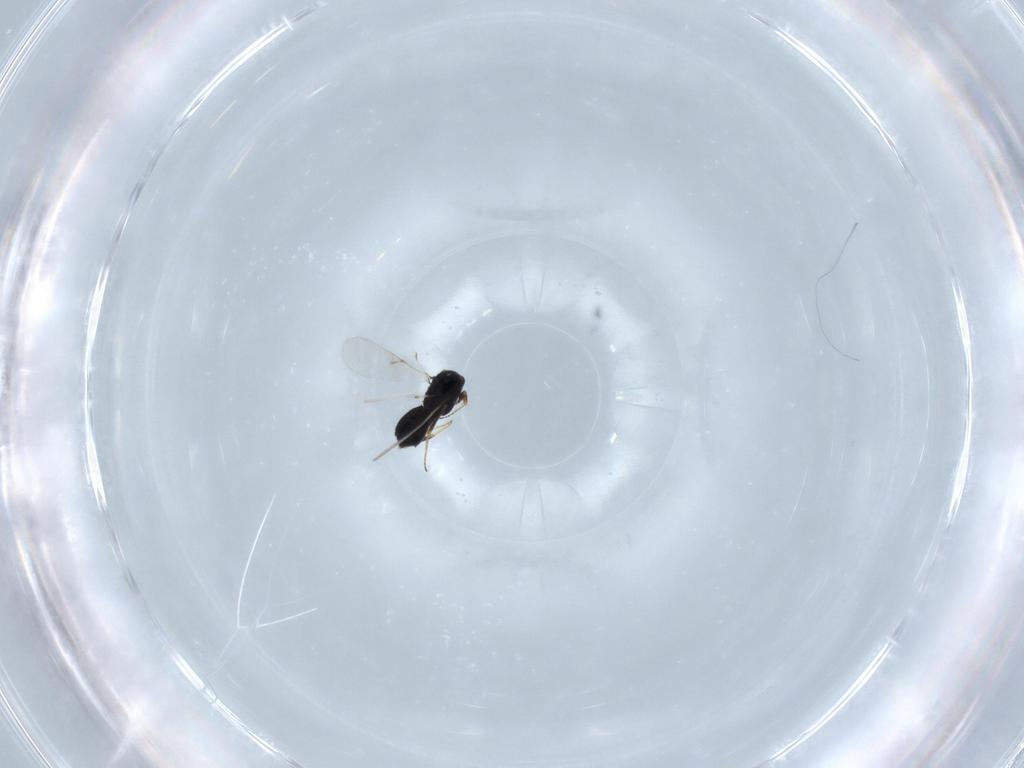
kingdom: Animalia
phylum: Arthropoda
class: Insecta
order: Hymenoptera
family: Scelionidae
